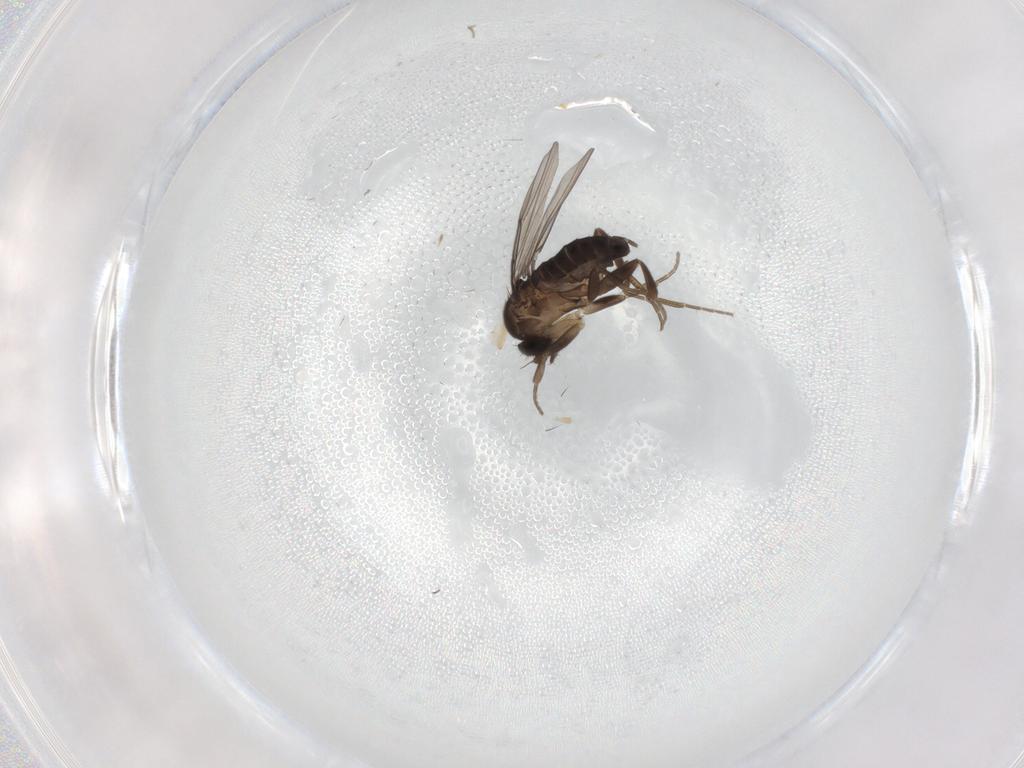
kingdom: Animalia
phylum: Arthropoda
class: Insecta
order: Diptera
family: Phoridae
